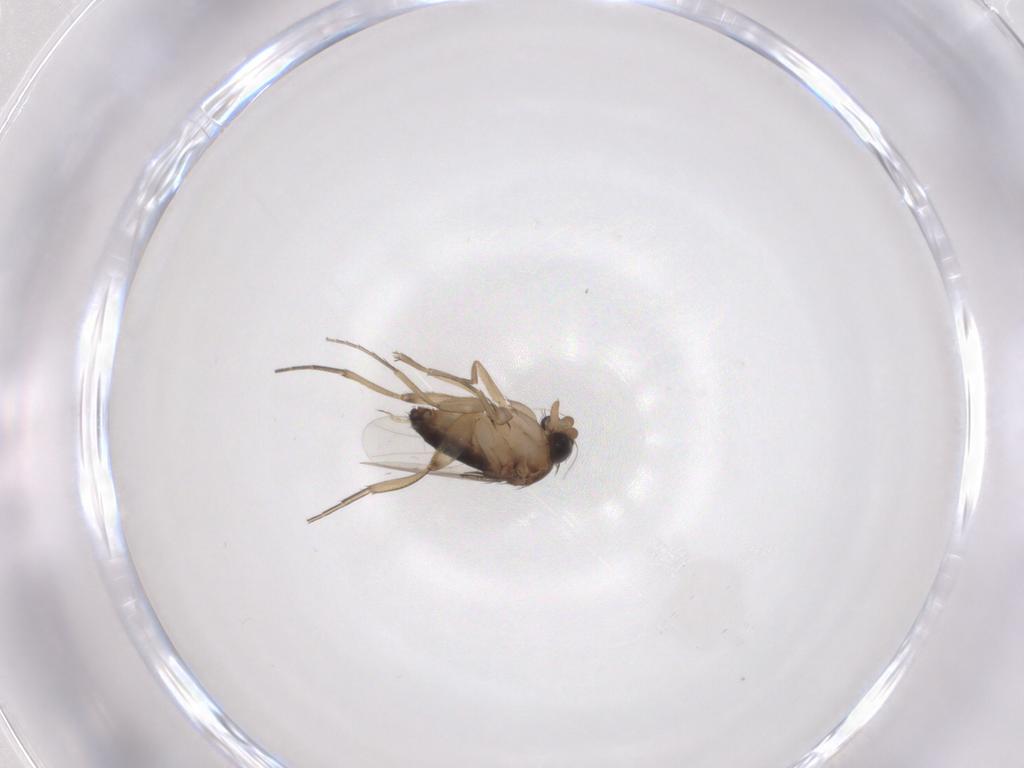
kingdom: Animalia
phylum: Arthropoda
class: Insecta
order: Diptera
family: Phoridae
